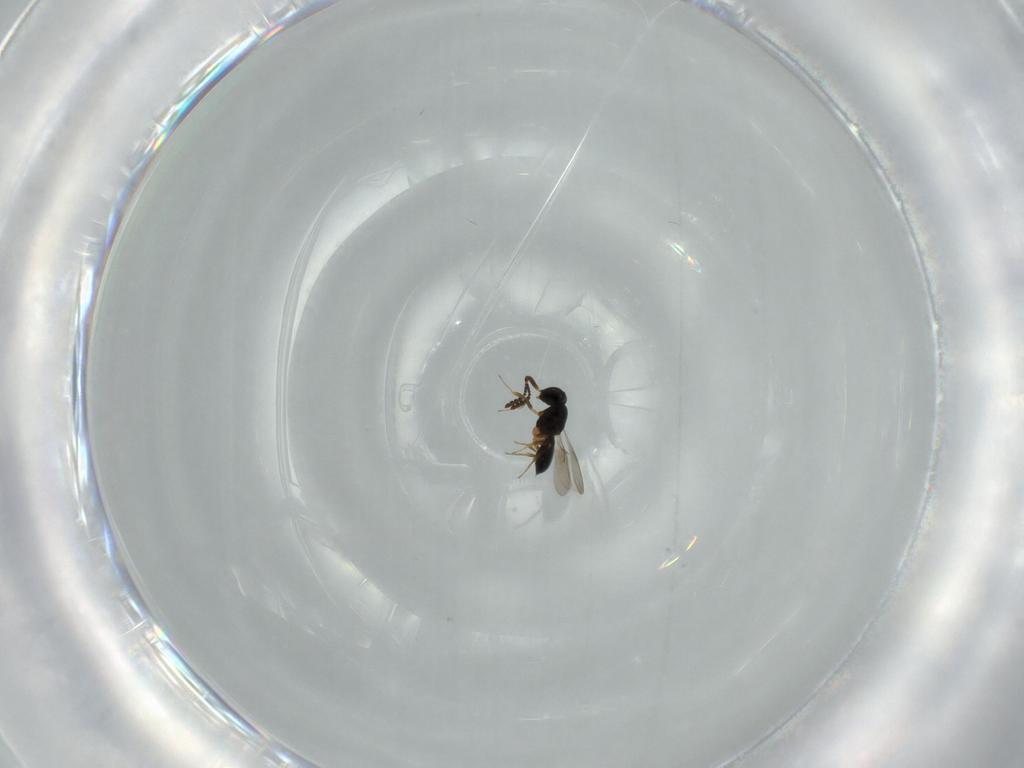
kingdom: Animalia
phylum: Arthropoda
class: Insecta
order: Hymenoptera
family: Scelionidae
